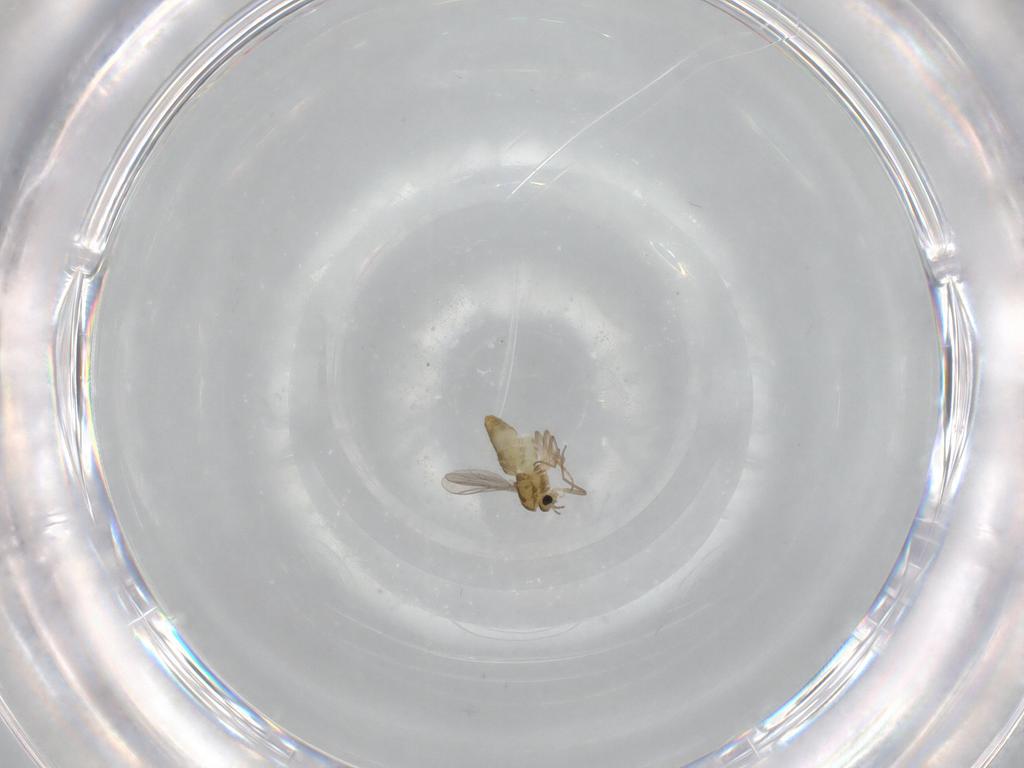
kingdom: Animalia
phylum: Arthropoda
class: Insecta
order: Diptera
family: Chironomidae
